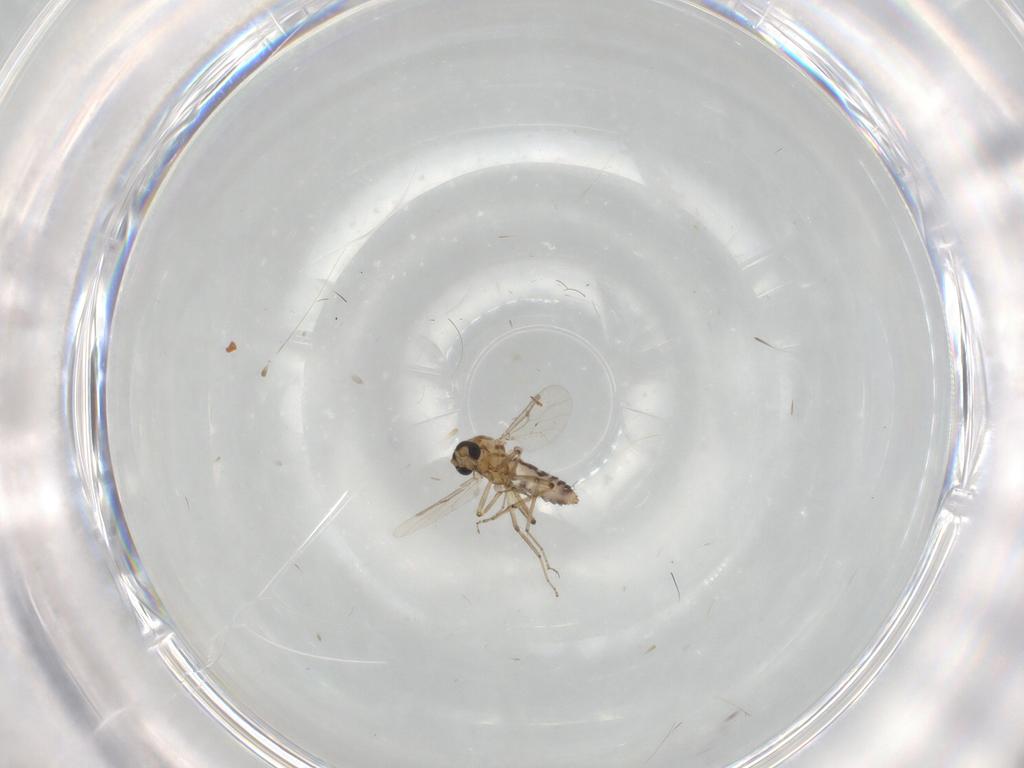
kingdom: Animalia
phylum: Arthropoda
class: Insecta
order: Diptera
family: Ceratopogonidae
